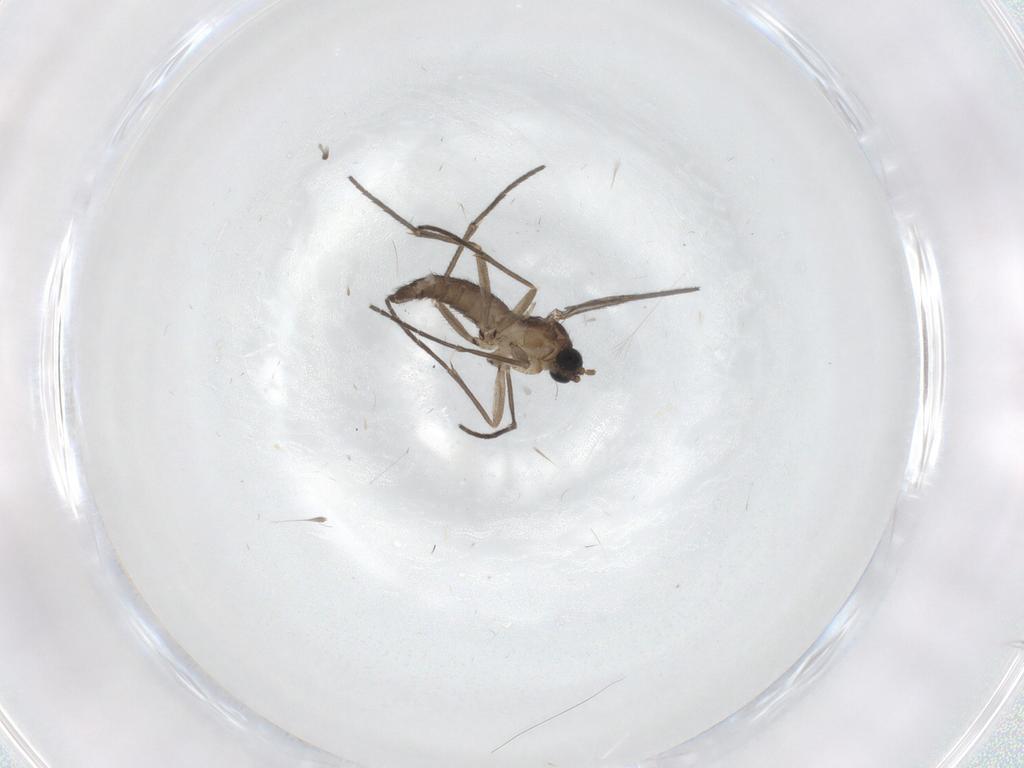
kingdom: Animalia
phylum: Arthropoda
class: Insecta
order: Diptera
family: Sciaridae
